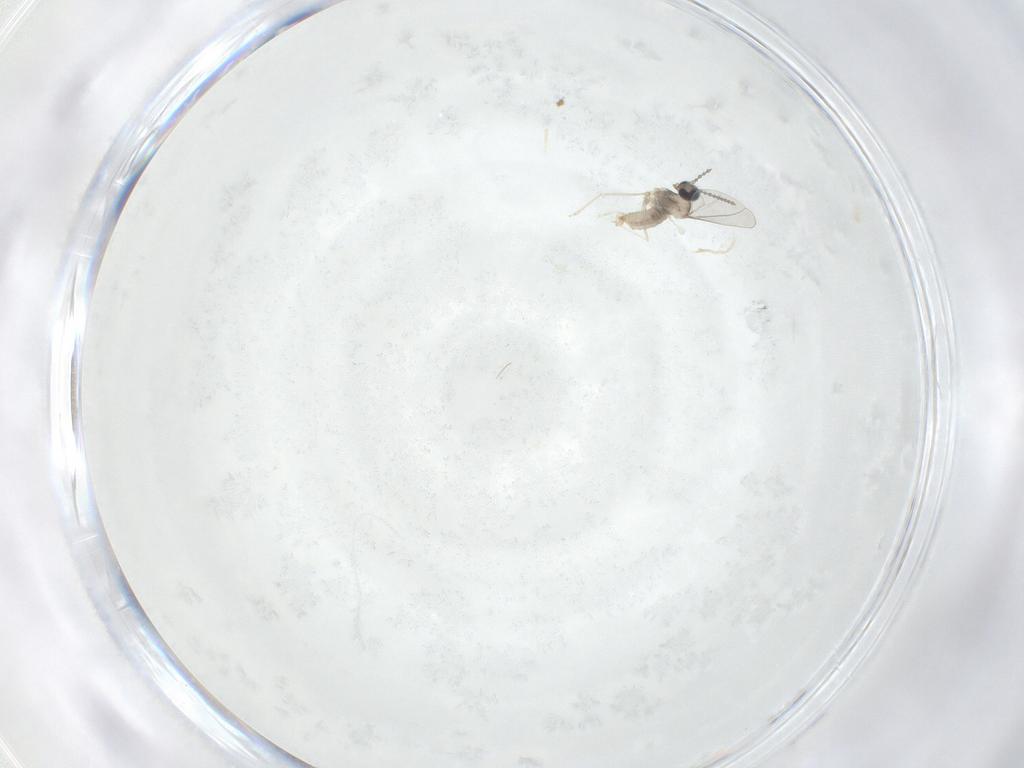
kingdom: Animalia
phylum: Arthropoda
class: Insecta
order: Diptera
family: Cecidomyiidae
